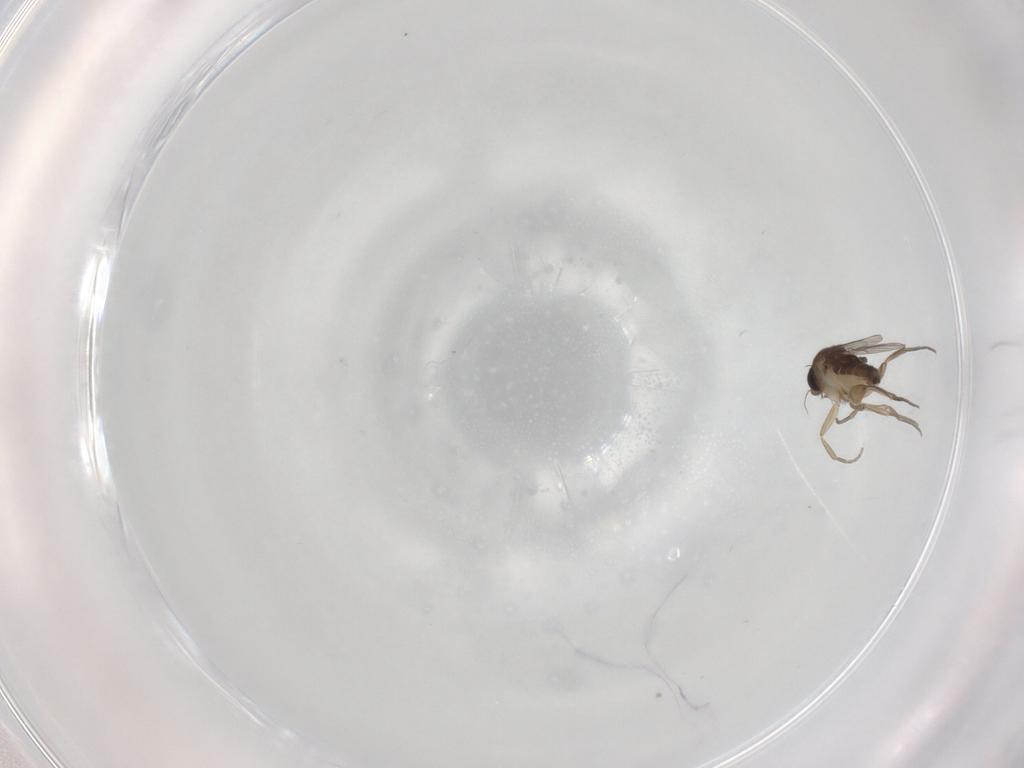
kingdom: Animalia
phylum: Arthropoda
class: Insecta
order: Diptera
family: Phoridae
